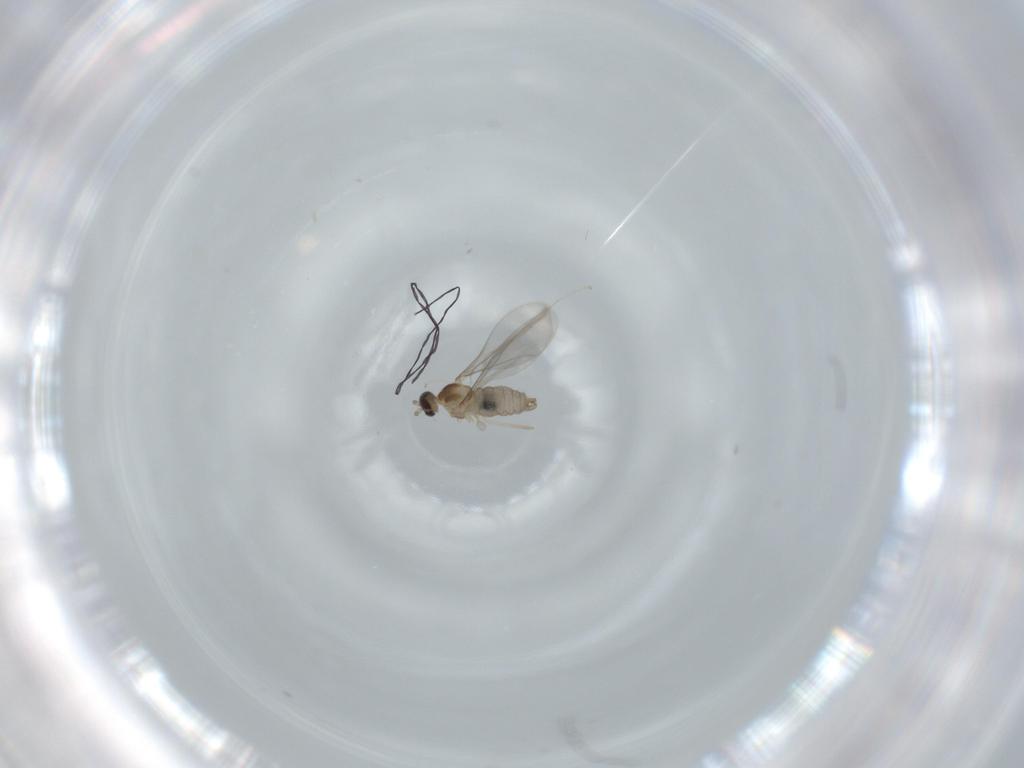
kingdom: Animalia
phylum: Arthropoda
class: Insecta
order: Diptera
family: Cecidomyiidae
